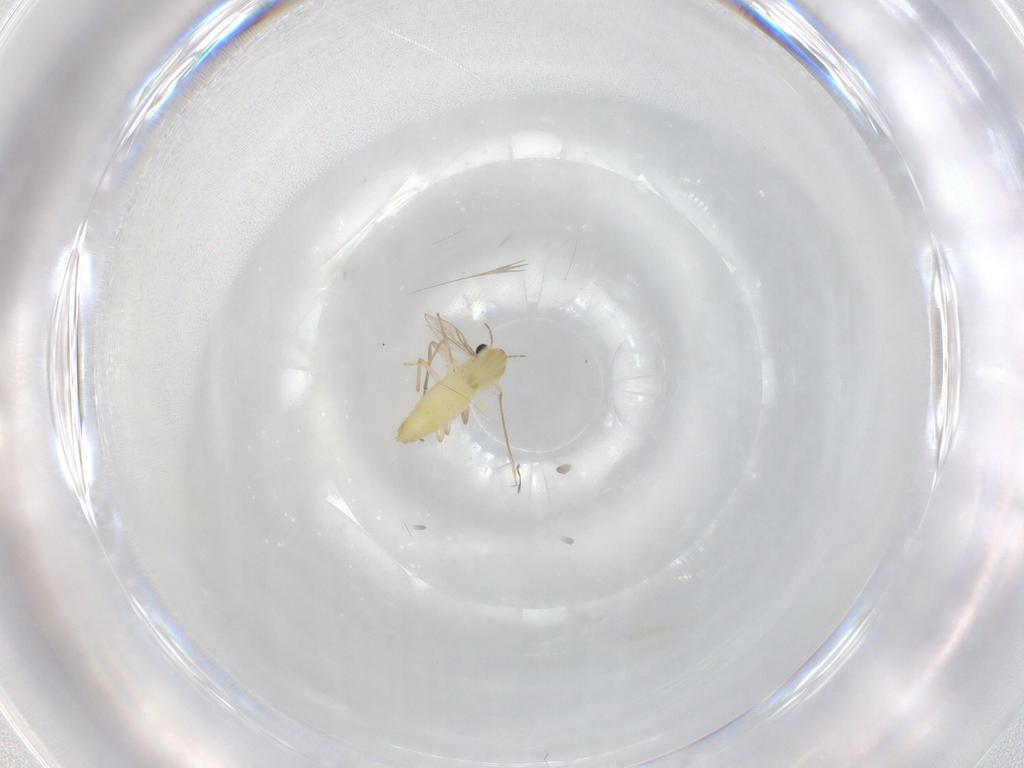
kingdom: Animalia
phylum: Arthropoda
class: Insecta
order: Diptera
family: Chironomidae
